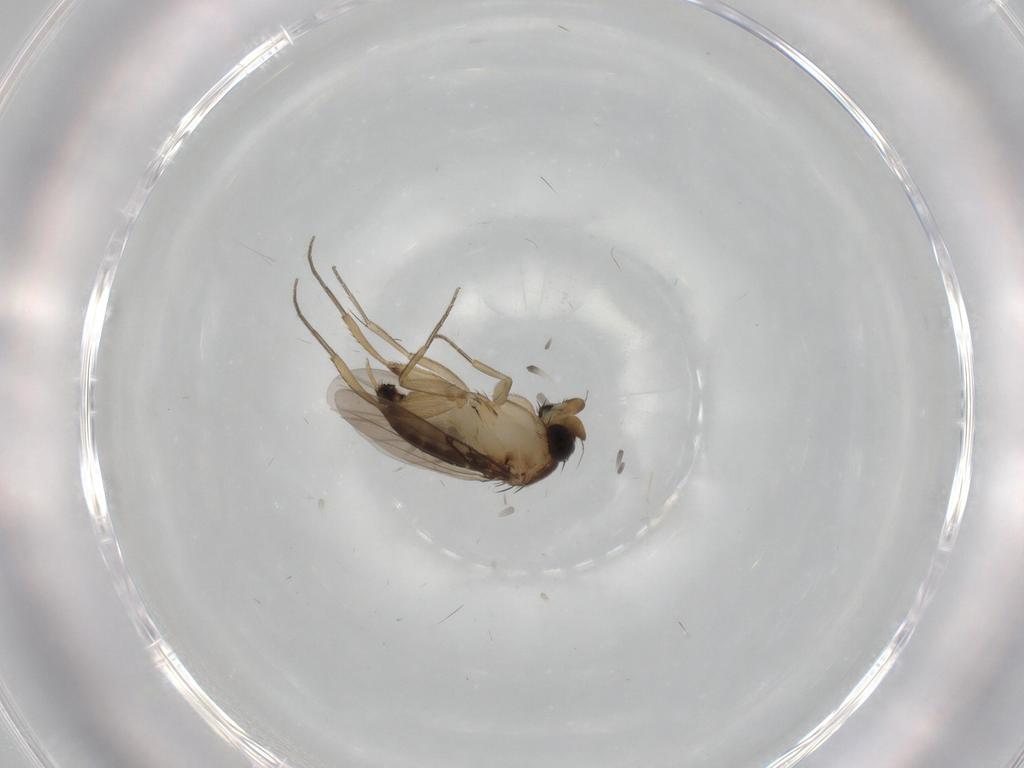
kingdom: Animalia
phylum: Arthropoda
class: Insecta
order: Diptera
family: Phoridae
